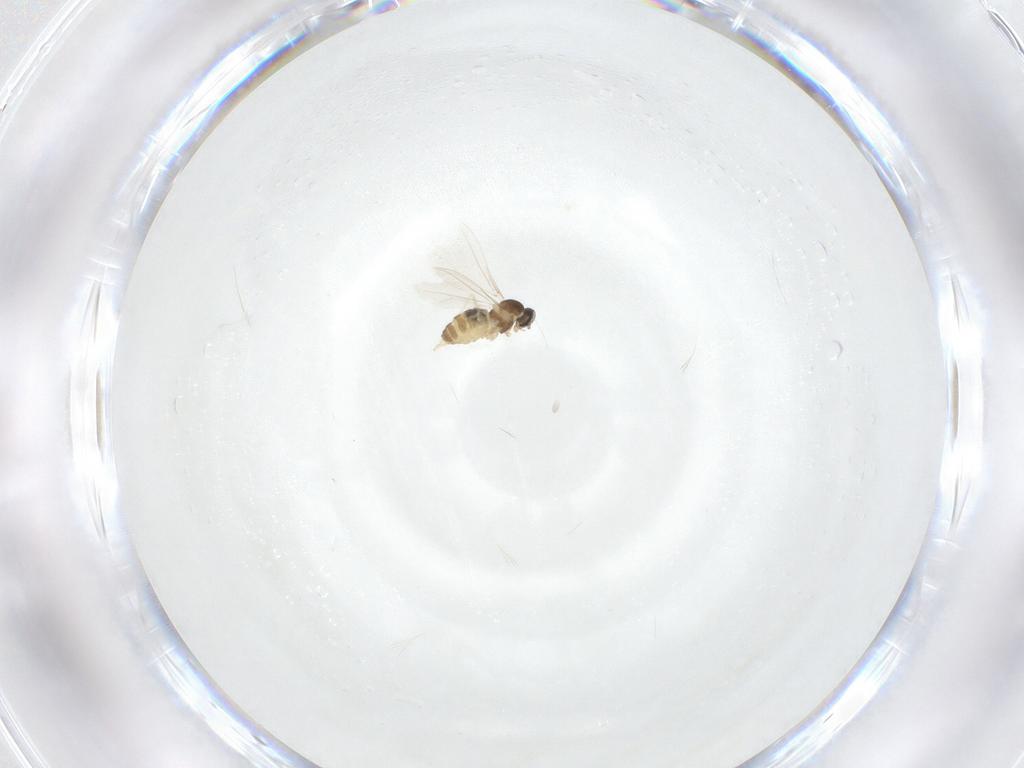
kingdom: Animalia
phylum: Arthropoda
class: Insecta
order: Diptera
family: Cecidomyiidae
